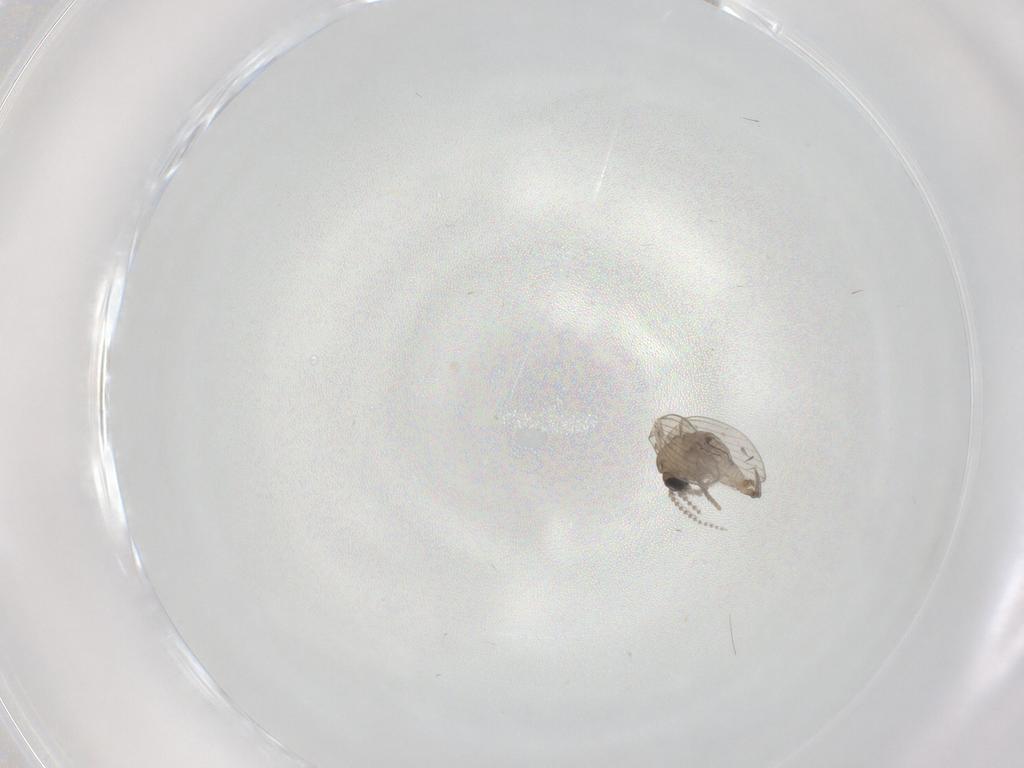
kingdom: Animalia
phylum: Arthropoda
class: Insecta
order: Diptera
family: Psychodidae
